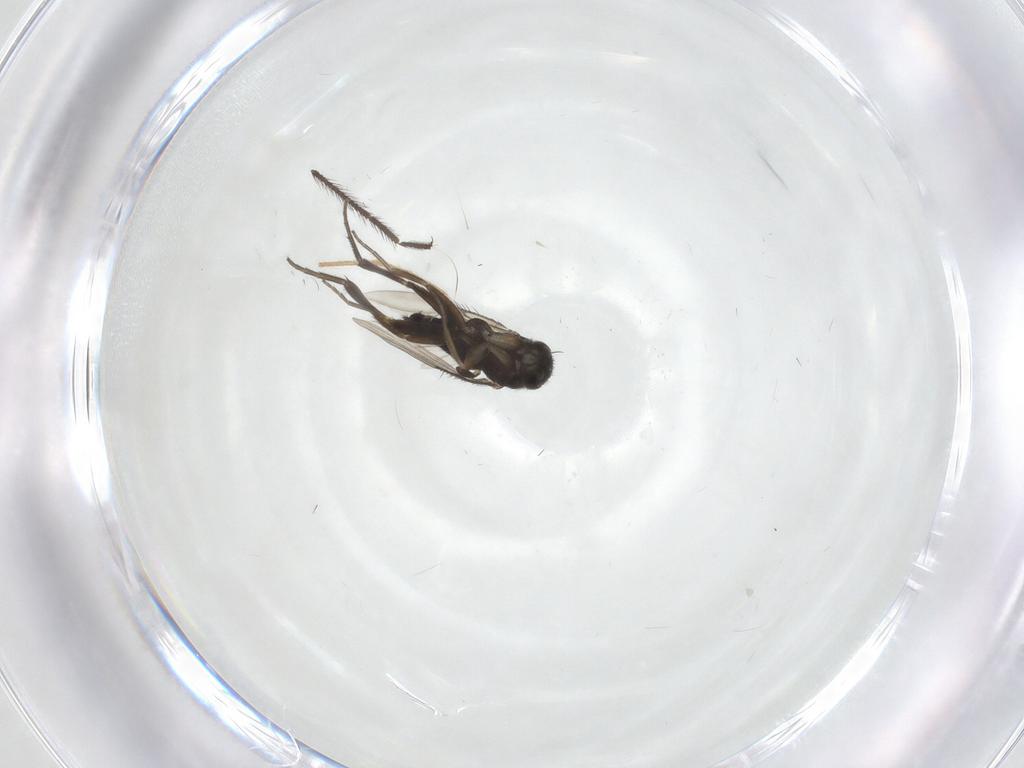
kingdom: Animalia
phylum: Arthropoda
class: Insecta
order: Diptera
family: Phoridae
